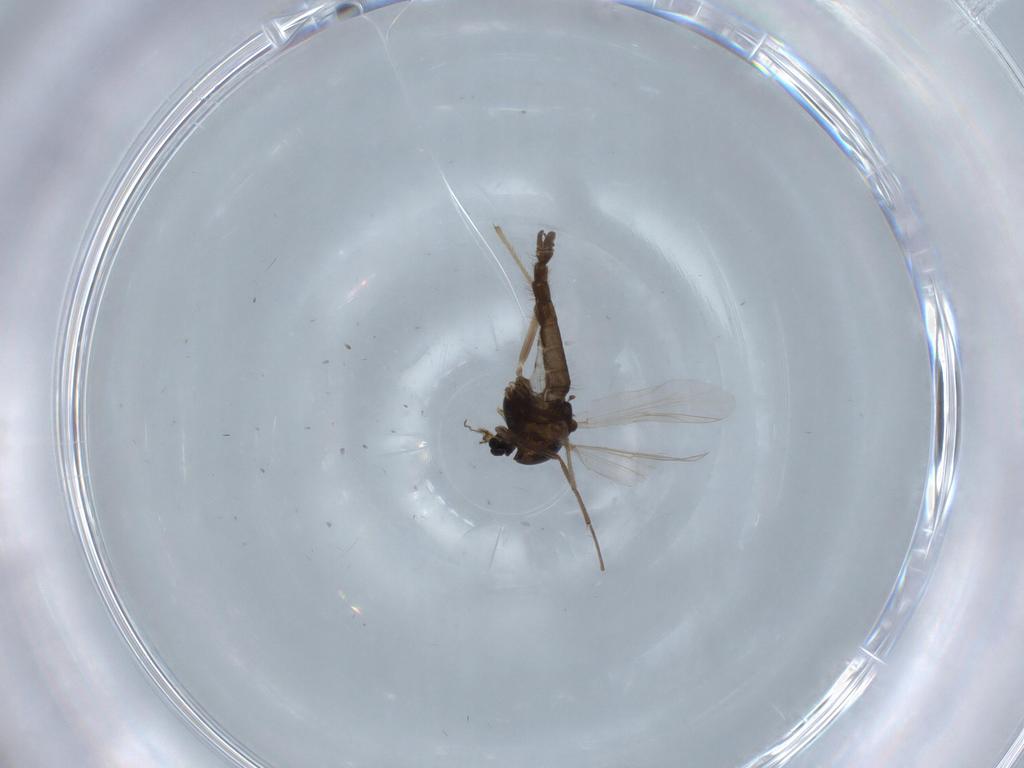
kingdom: Animalia
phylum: Arthropoda
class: Insecta
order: Diptera
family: Chironomidae
